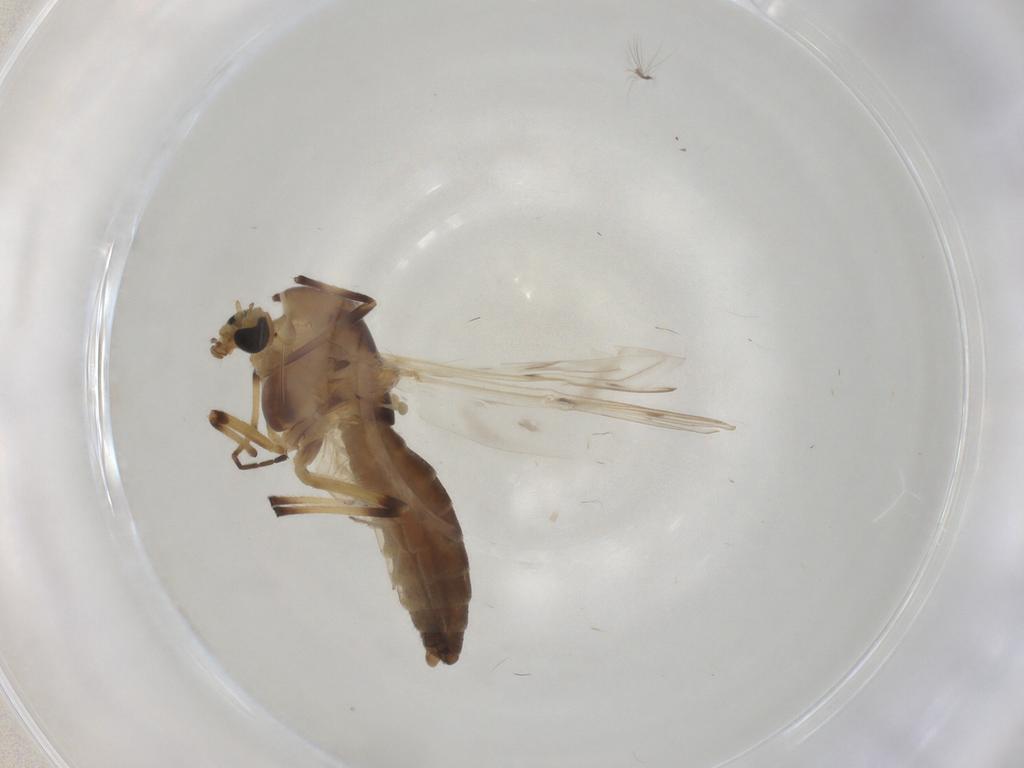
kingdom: Animalia
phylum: Arthropoda
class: Insecta
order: Diptera
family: Chironomidae
